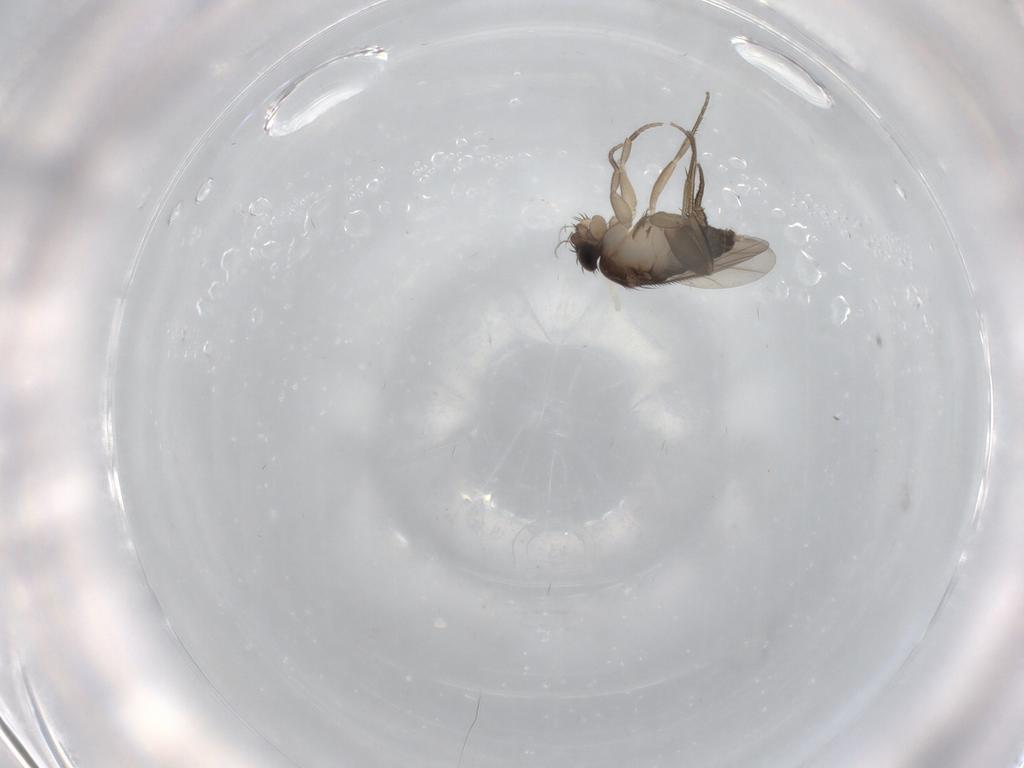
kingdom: Animalia
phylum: Arthropoda
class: Insecta
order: Diptera
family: Phoridae
